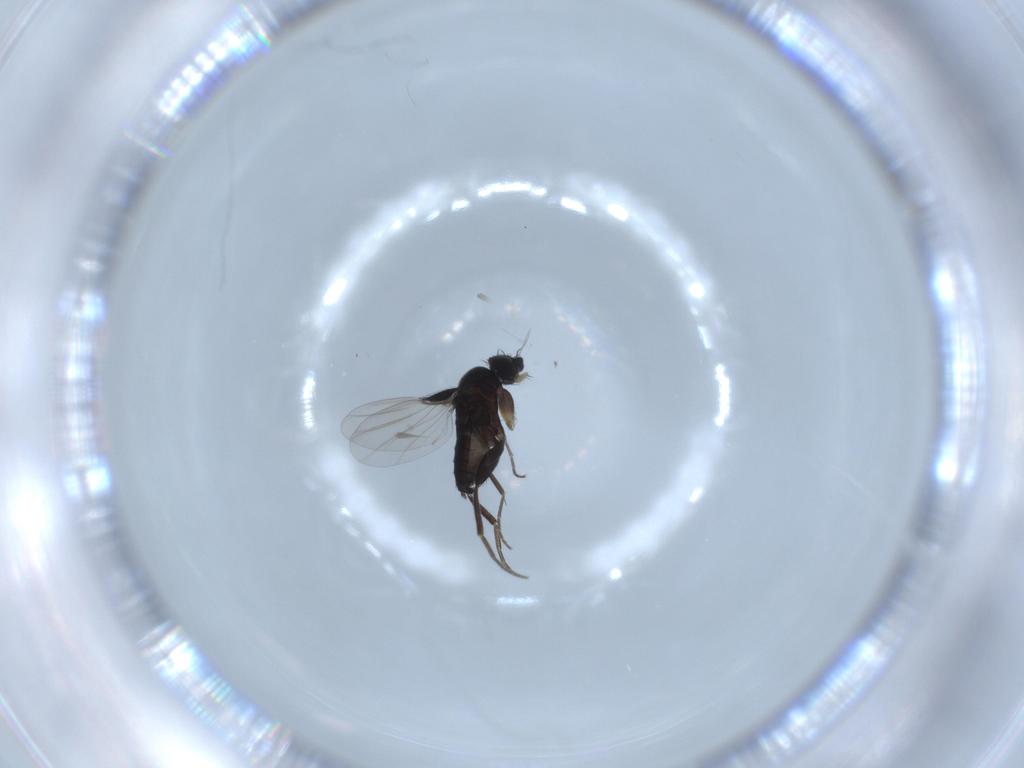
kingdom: Animalia
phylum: Arthropoda
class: Insecta
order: Diptera
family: Phoridae
